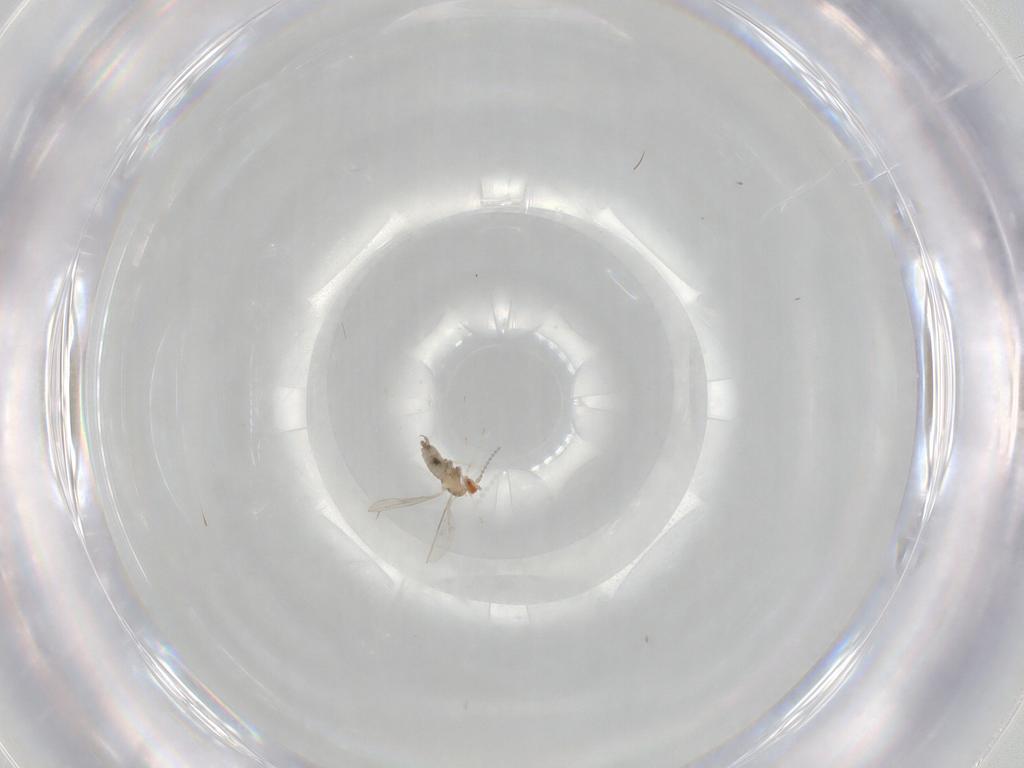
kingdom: Animalia
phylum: Arthropoda
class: Insecta
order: Diptera
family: Cecidomyiidae
